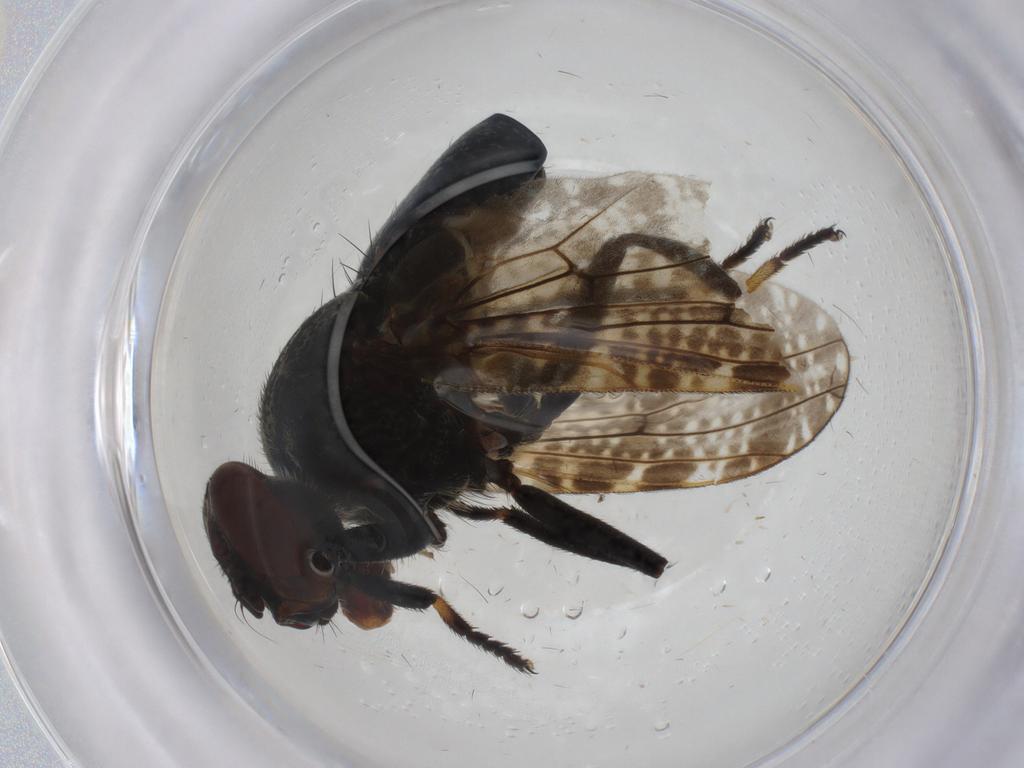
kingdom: Animalia
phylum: Arthropoda
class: Insecta
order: Diptera
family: Platystomatidae
